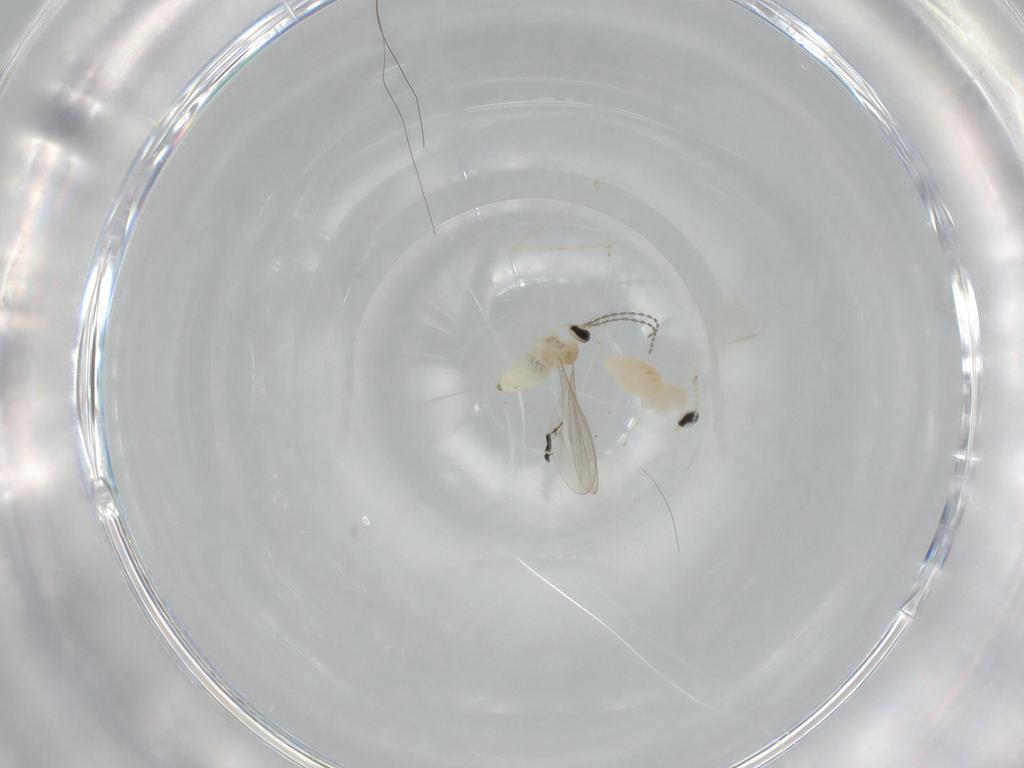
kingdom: Animalia
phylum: Arthropoda
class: Insecta
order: Diptera
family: Cecidomyiidae
